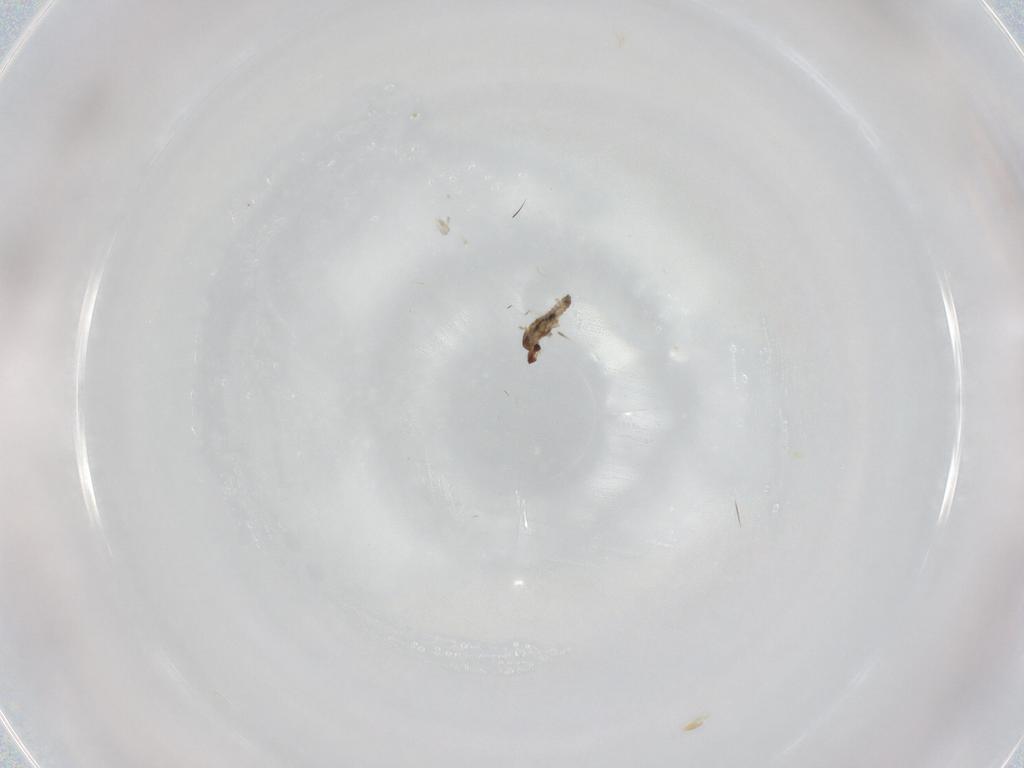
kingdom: Animalia
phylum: Arthropoda
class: Insecta
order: Diptera
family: Cecidomyiidae
